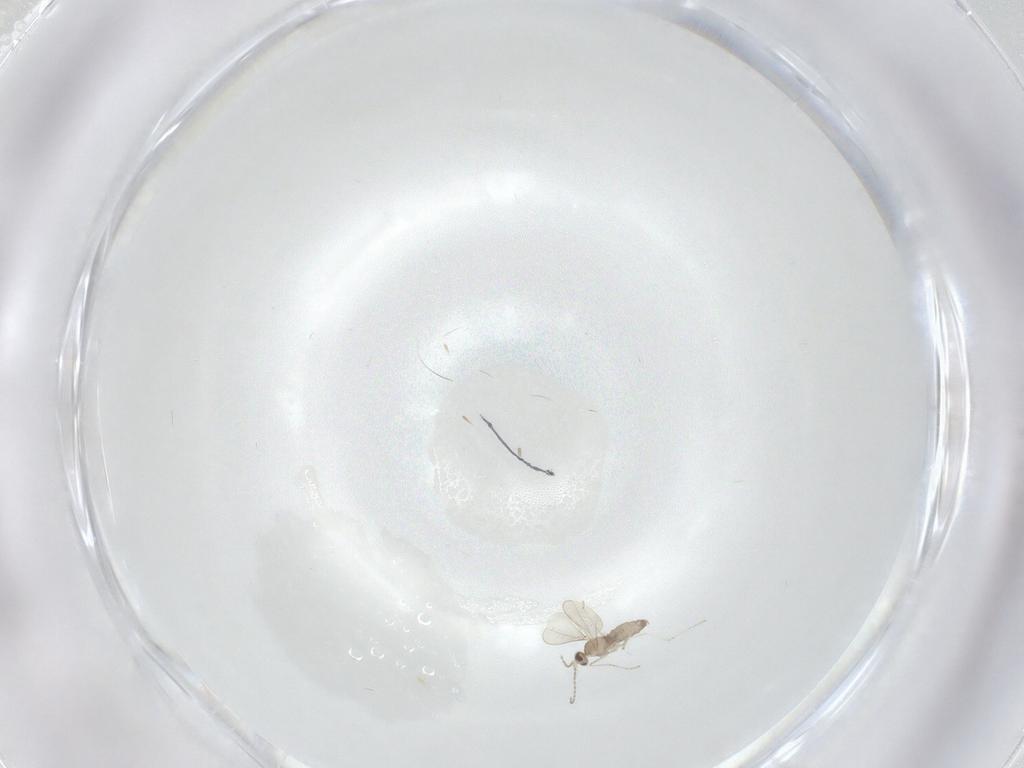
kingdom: Animalia
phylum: Arthropoda
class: Insecta
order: Diptera
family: Cecidomyiidae
